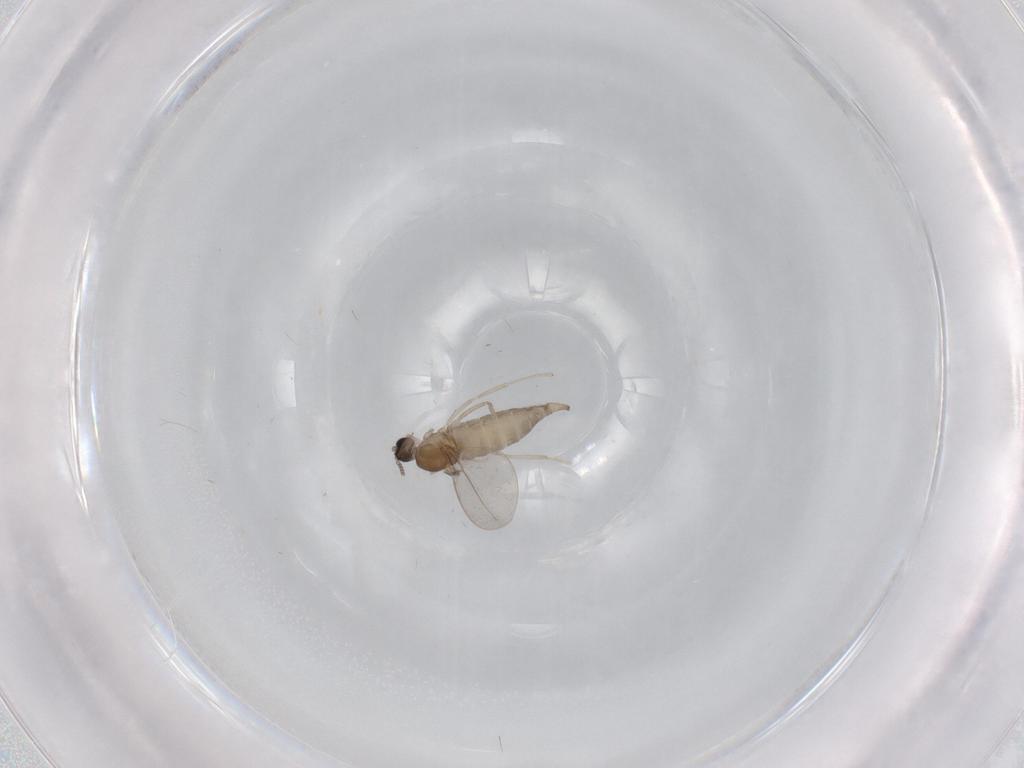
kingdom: Animalia
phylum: Arthropoda
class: Insecta
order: Diptera
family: Cecidomyiidae
